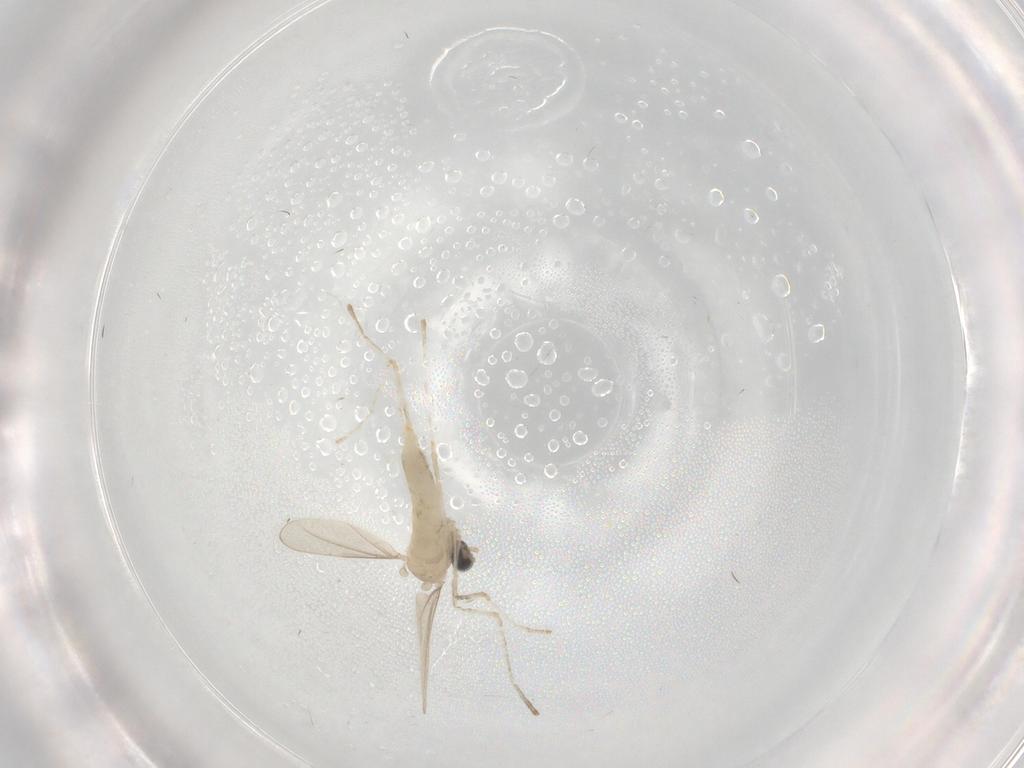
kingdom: Animalia
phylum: Arthropoda
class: Insecta
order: Diptera
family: Cecidomyiidae
